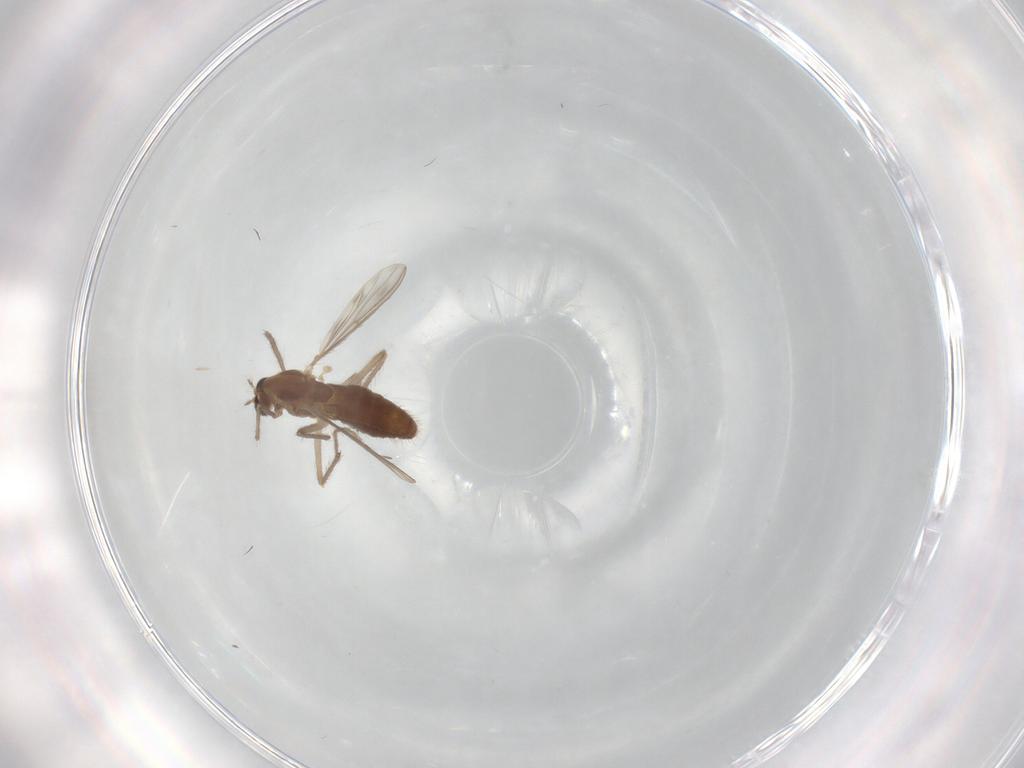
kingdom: Animalia
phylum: Arthropoda
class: Insecta
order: Diptera
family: Chironomidae
